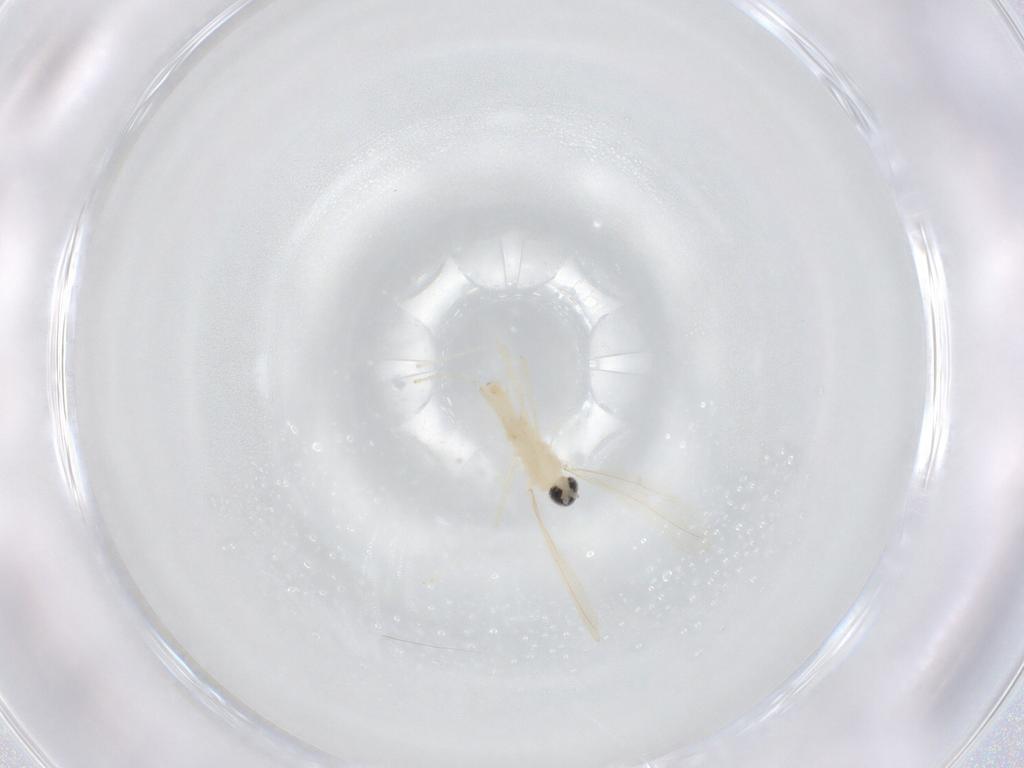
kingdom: Animalia
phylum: Arthropoda
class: Insecta
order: Diptera
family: Cecidomyiidae
